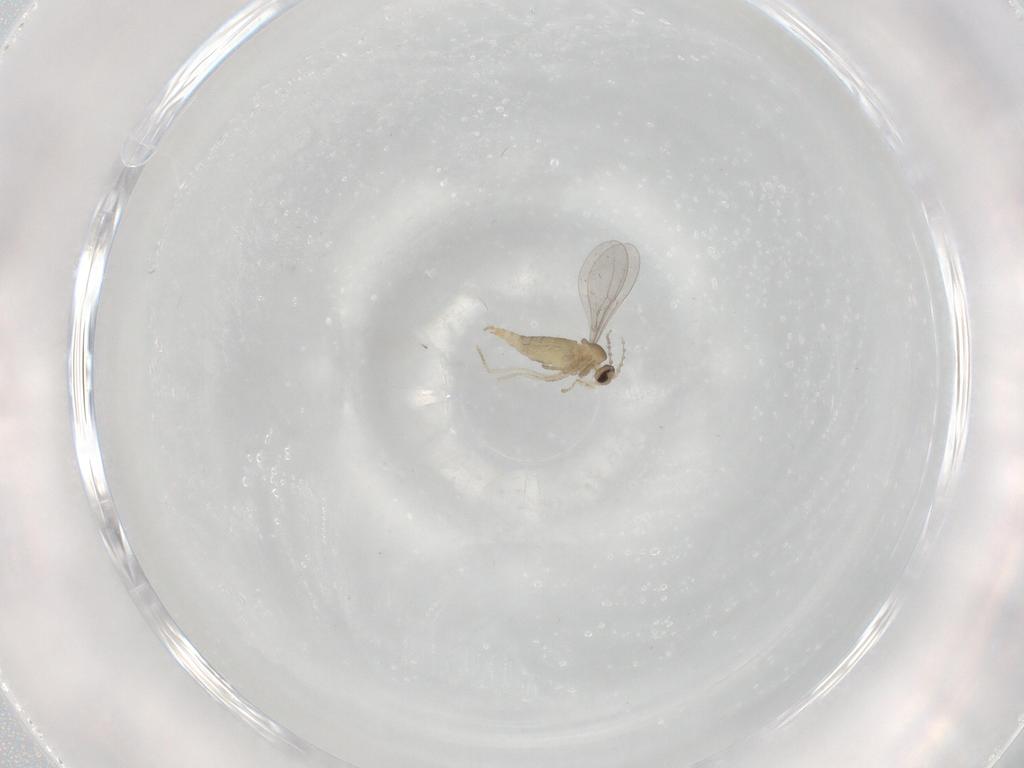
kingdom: Animalia
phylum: Arthropoda
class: Insecta
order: Diptera
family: Cecidomyiidae
